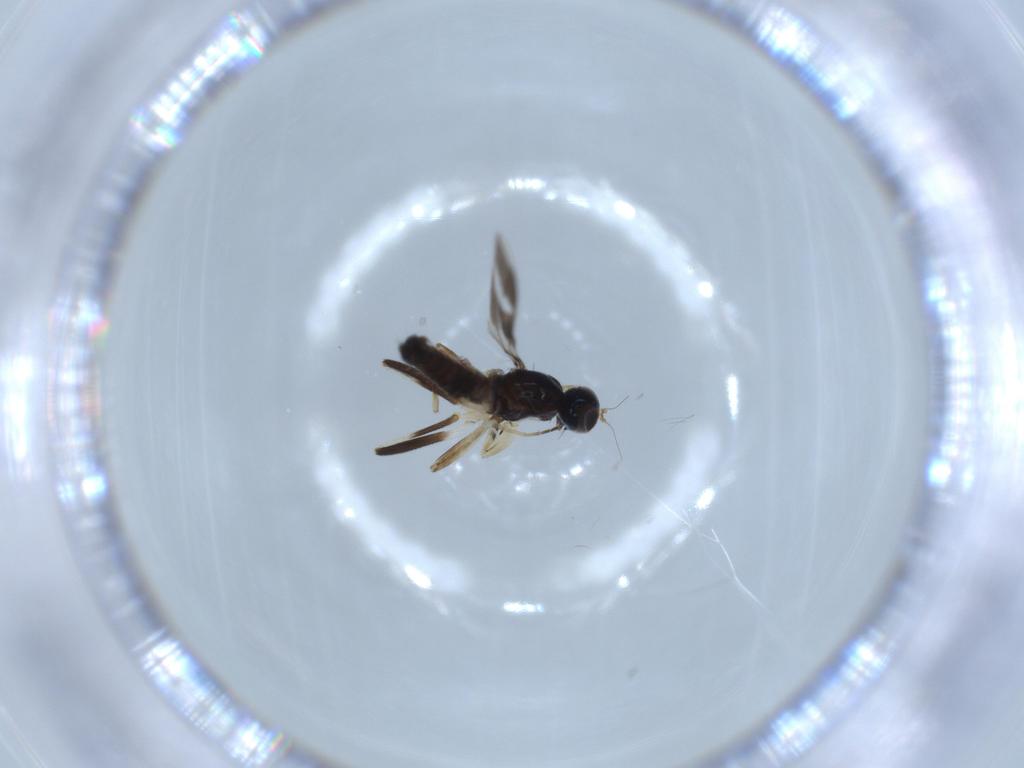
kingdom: Animalia
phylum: Arthropoda
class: Insecta
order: Diptera
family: Hybotidae
